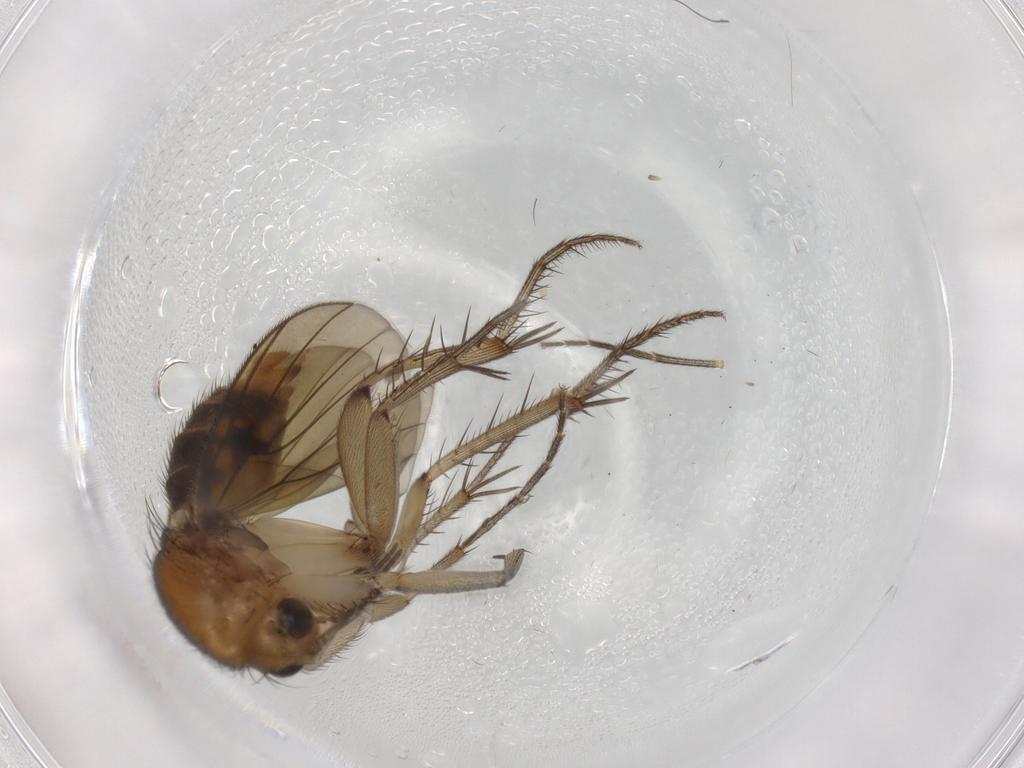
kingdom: Animalia
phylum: Arthropoda
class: Insecta
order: Diptera
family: Mycetophilidae
